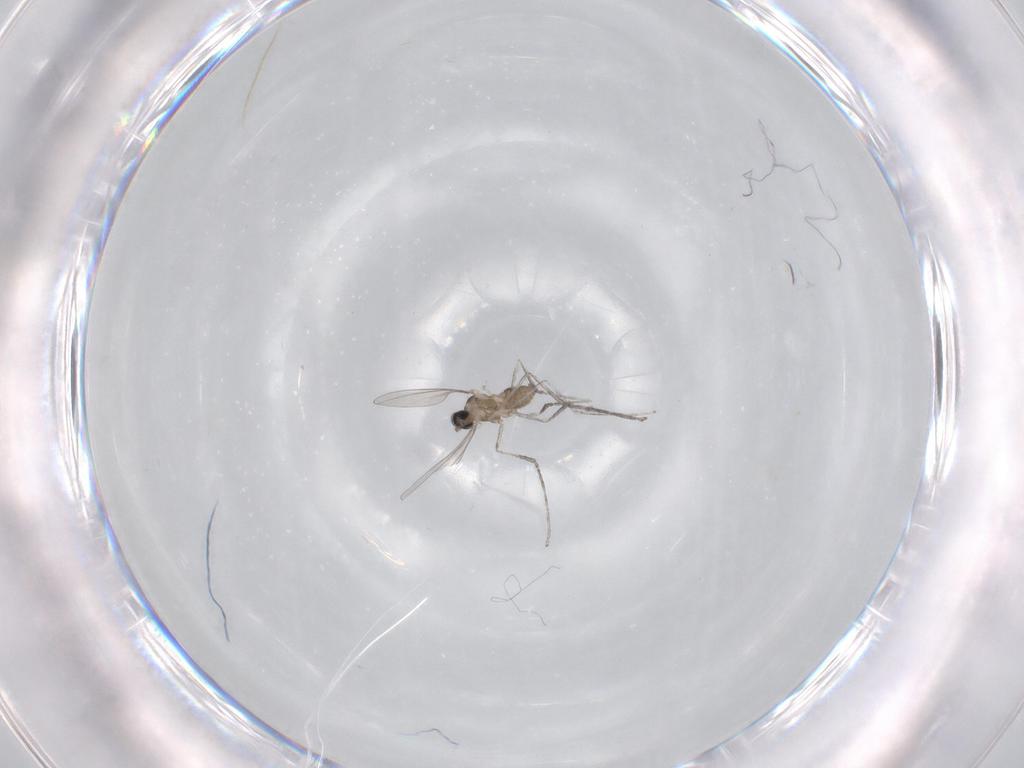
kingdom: Animalia
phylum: Arthropoda
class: Insecta
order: Diptera
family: Cecidomyiidae
